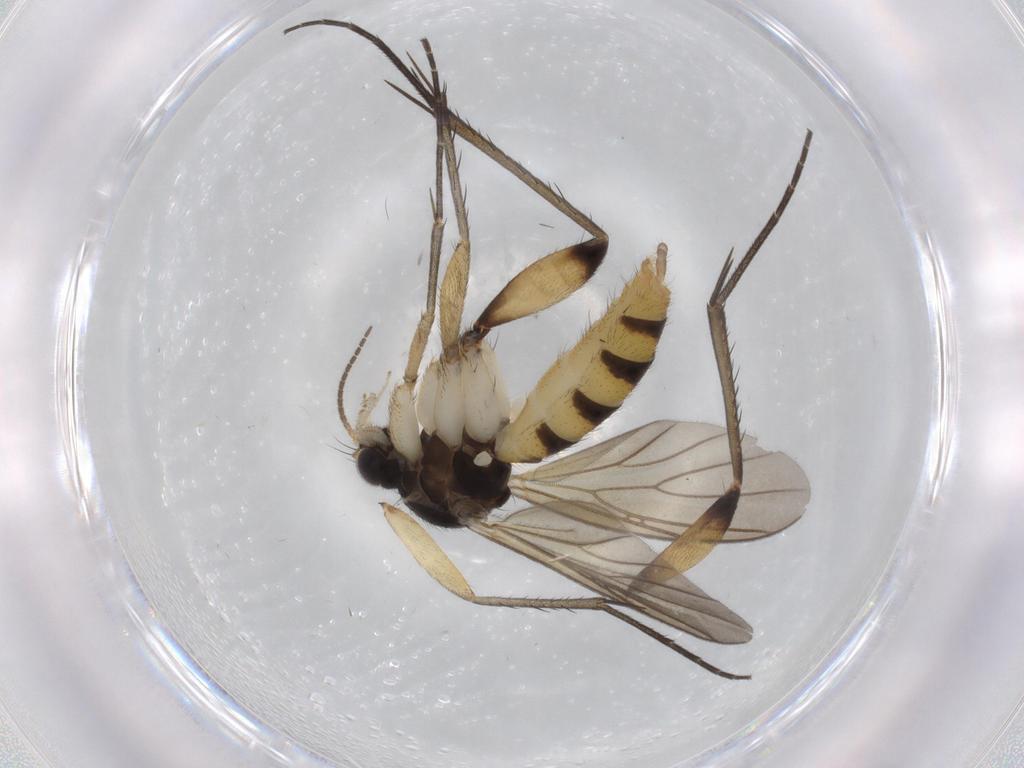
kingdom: Animalia
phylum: Arthropoda
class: Insecta
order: Diptera
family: Mycetophilidae
